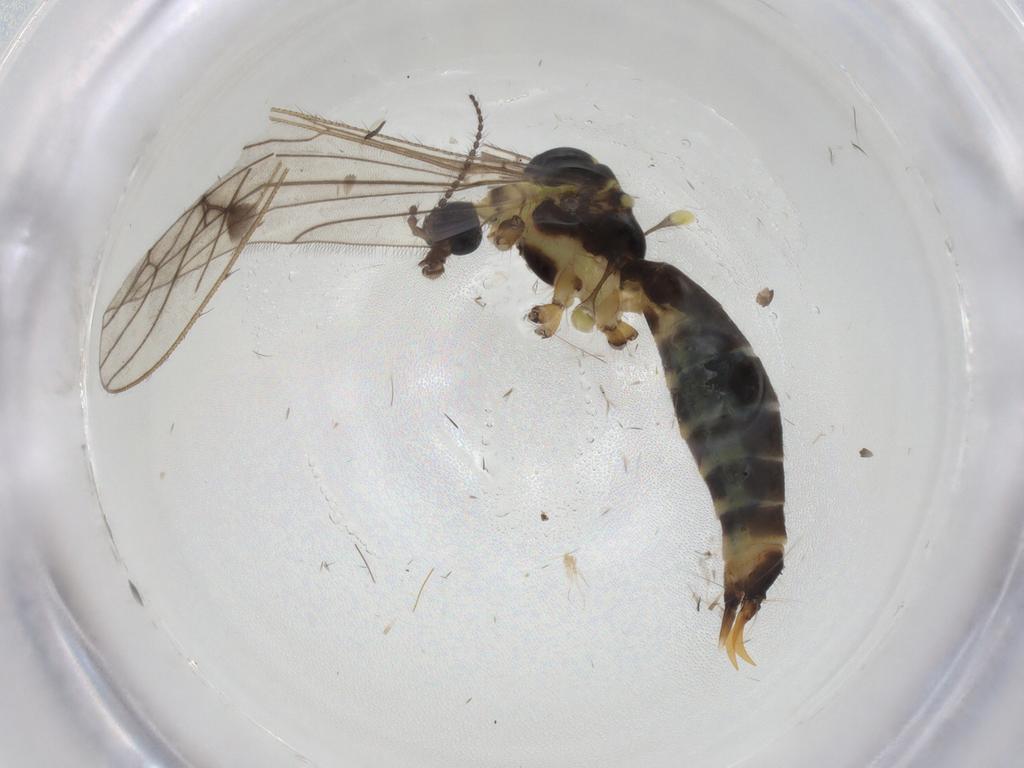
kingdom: Animalia
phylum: Arthropoda
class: Insecta
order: Diptera
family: Limoniidae
